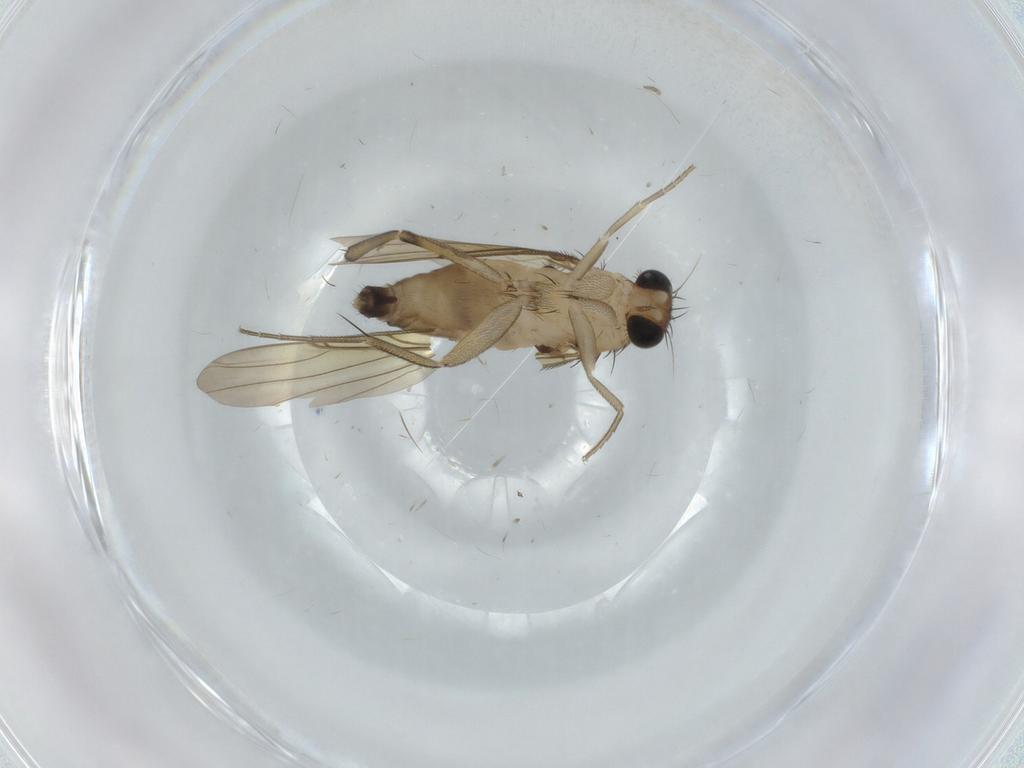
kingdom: Animalia
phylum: Arthropoda
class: Insecta
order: Diptera
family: Phoridae
